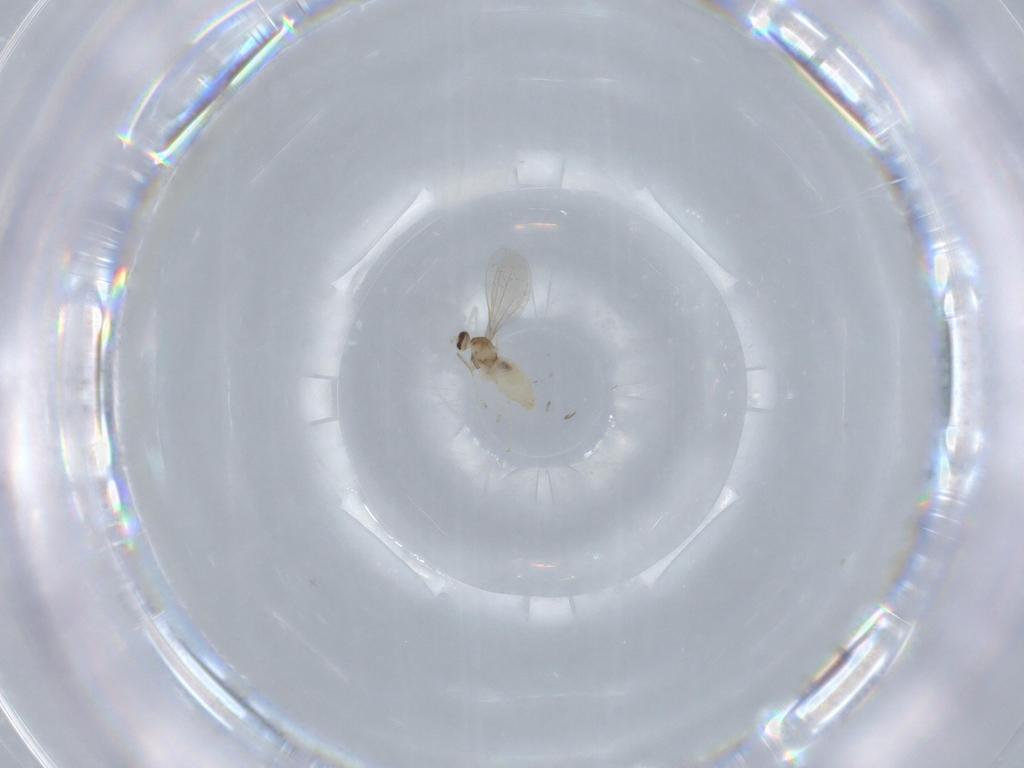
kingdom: Animalia
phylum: Arthropoda
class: Insecta
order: Diptera
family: Cecidomyiidae
